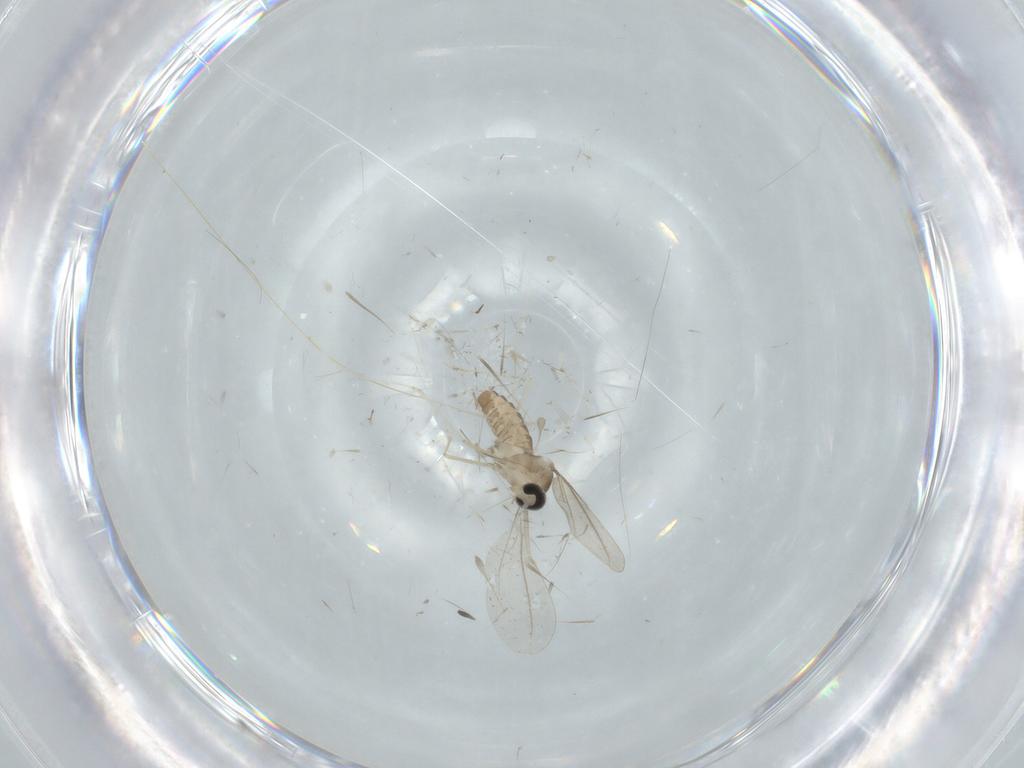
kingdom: Animalia
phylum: Arthropoda
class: Insecta
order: Diptera
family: Cecidomyiidae
